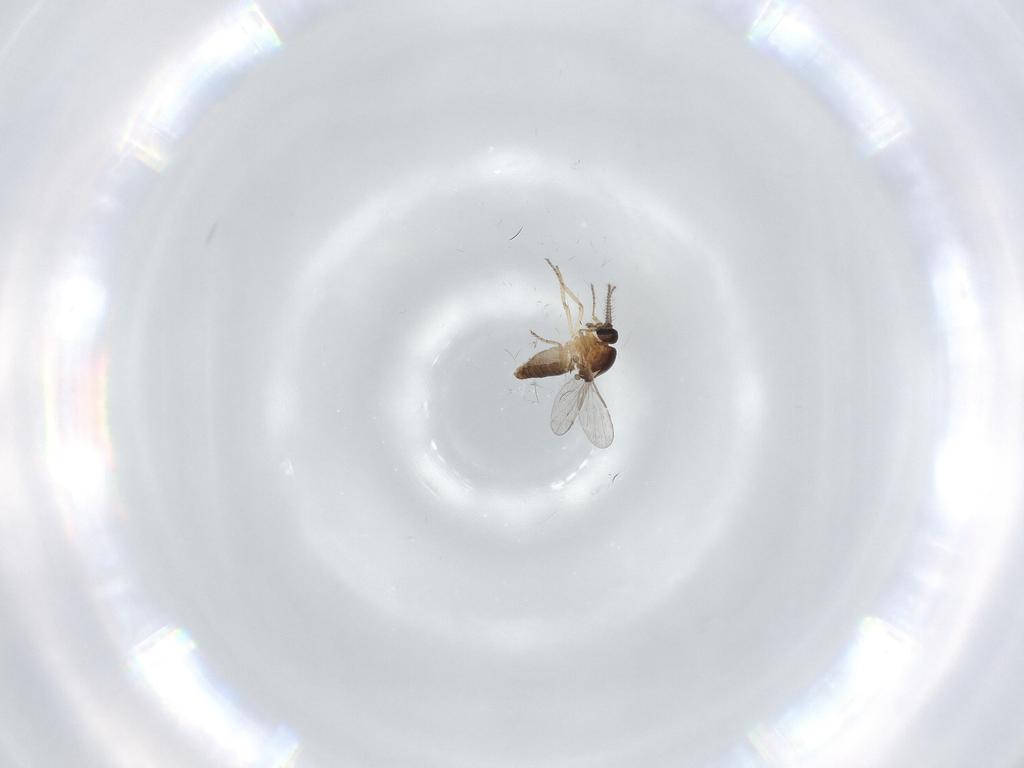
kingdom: Animalia
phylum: Arthropoda
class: Insecta
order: Diptera
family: Ceratopogonidae
